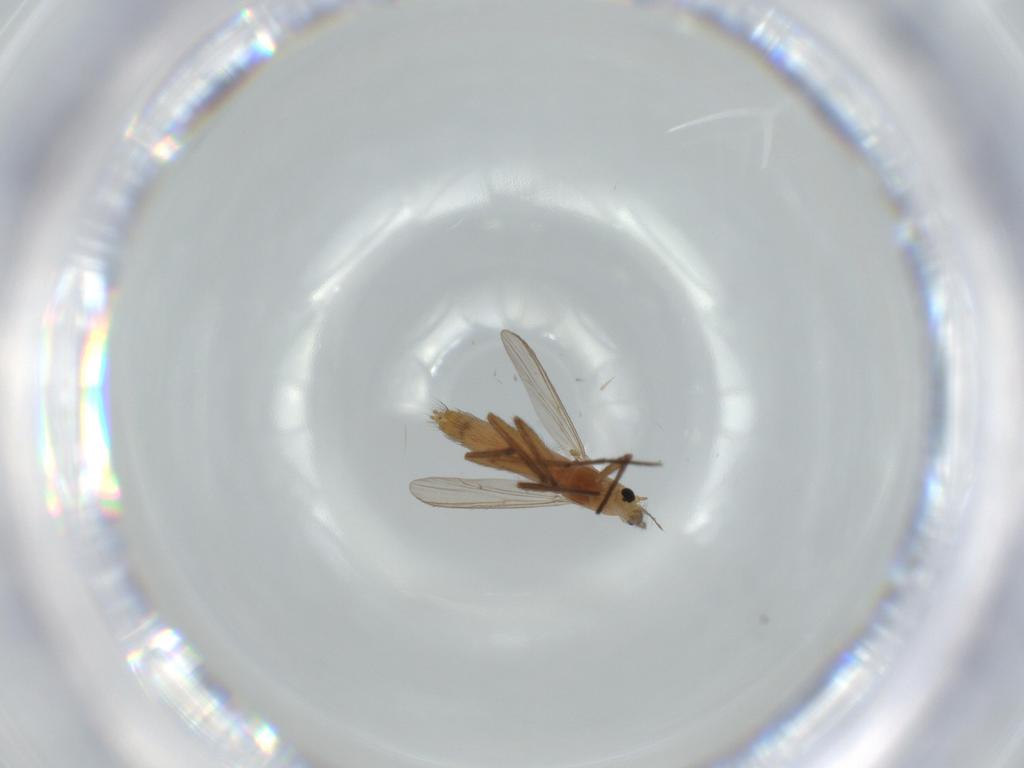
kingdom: Animalia
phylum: Arthropoda
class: Insecta
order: Diptera
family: Chironomidae
